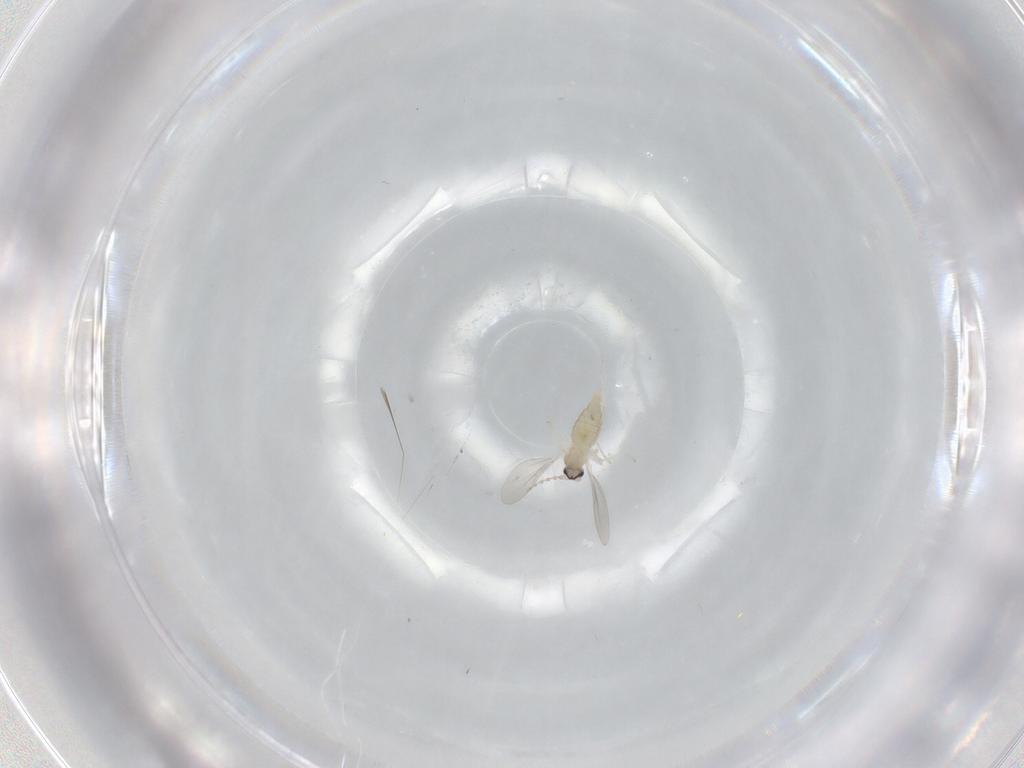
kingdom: Animalia
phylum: Arthropoda
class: Insecta
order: Diptera
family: Cecidomyiidae
